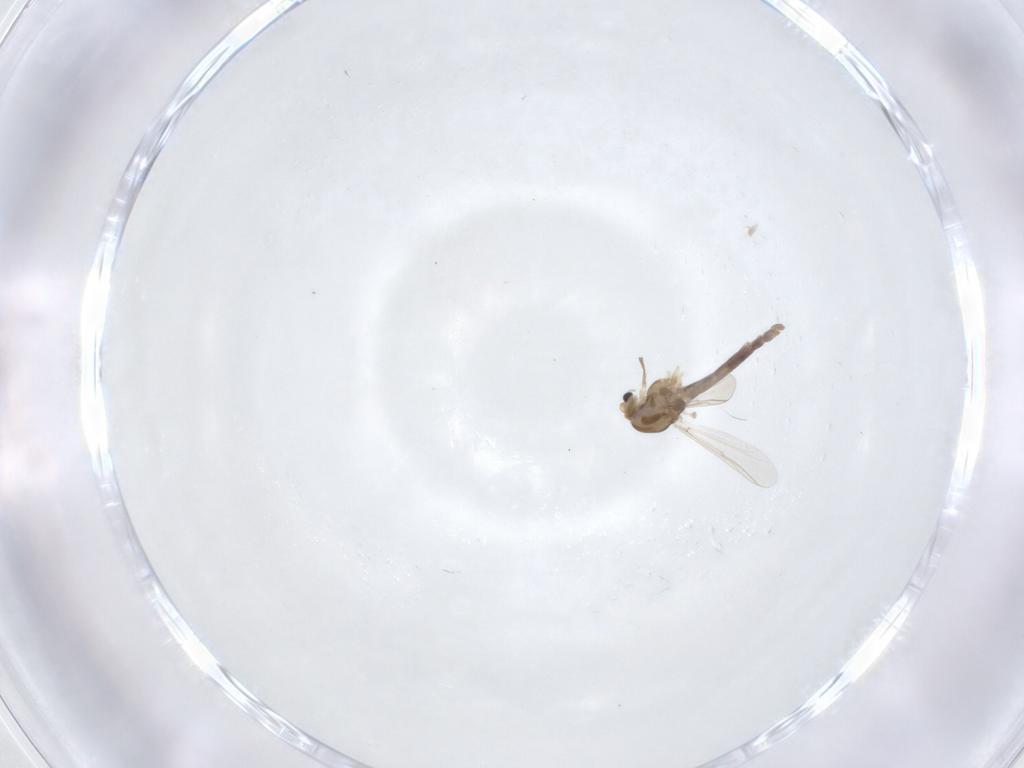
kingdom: Animalia
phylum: Arthropoda
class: Insecta
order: Diptera
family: Chironomidae
